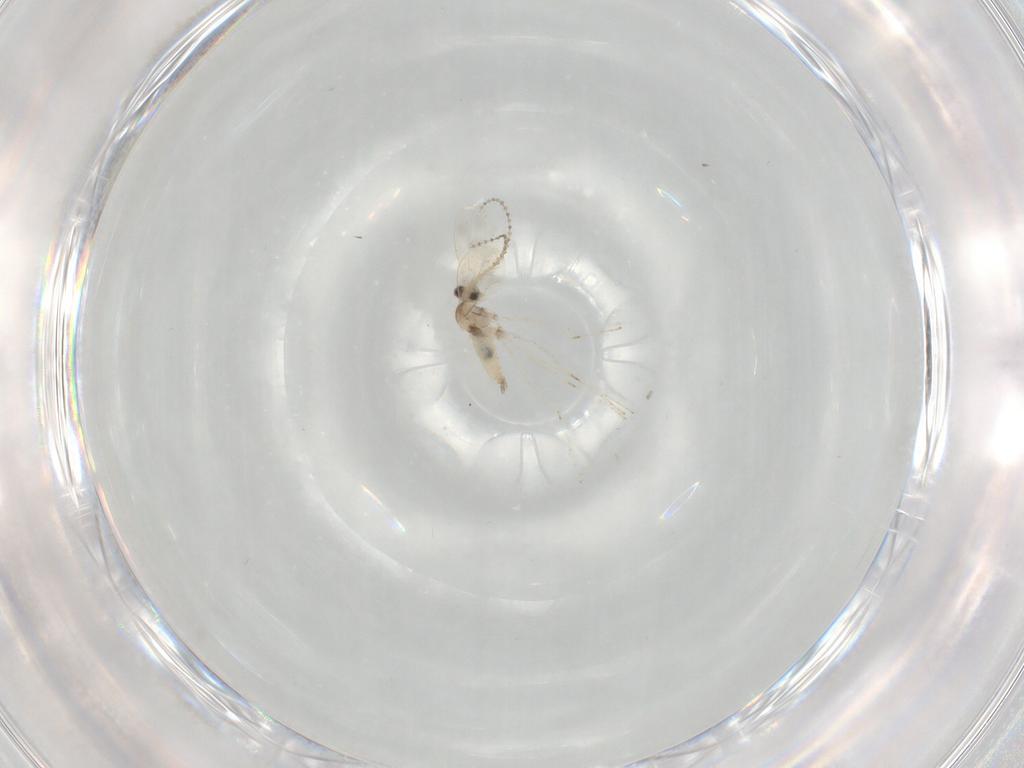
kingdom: Animalia
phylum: Arthropoda
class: Insecta
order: Diptera
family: Cecidomyiidae
